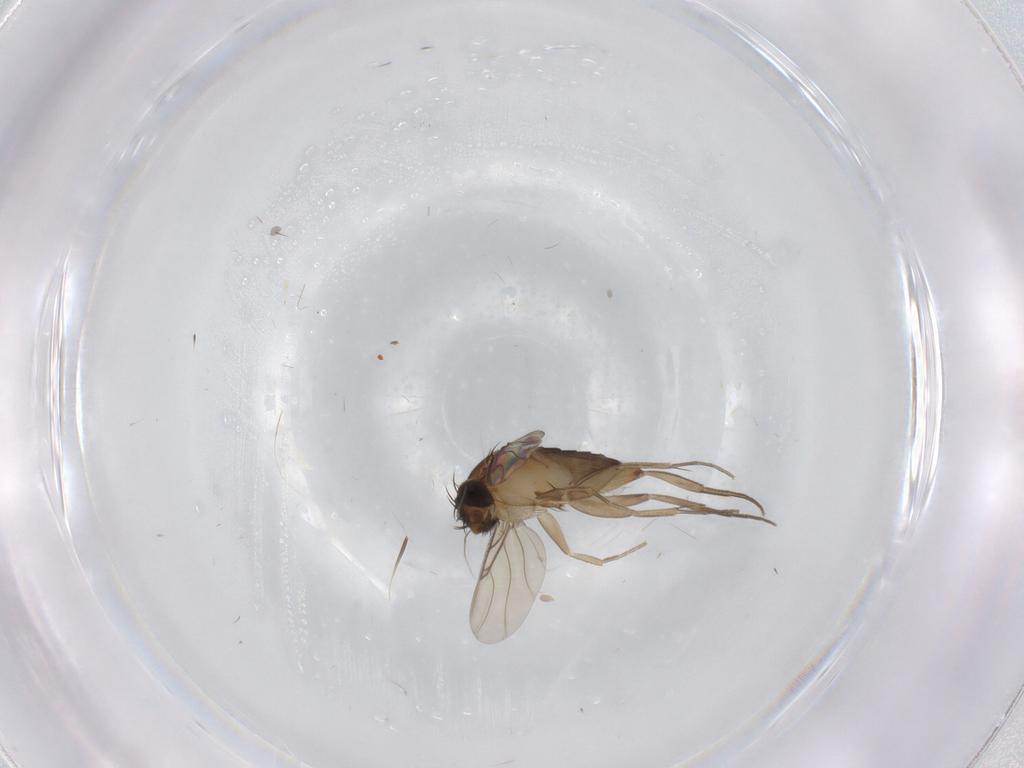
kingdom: Animalia
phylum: Arthropoda
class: Insecta
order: Diptera
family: Phoridae
